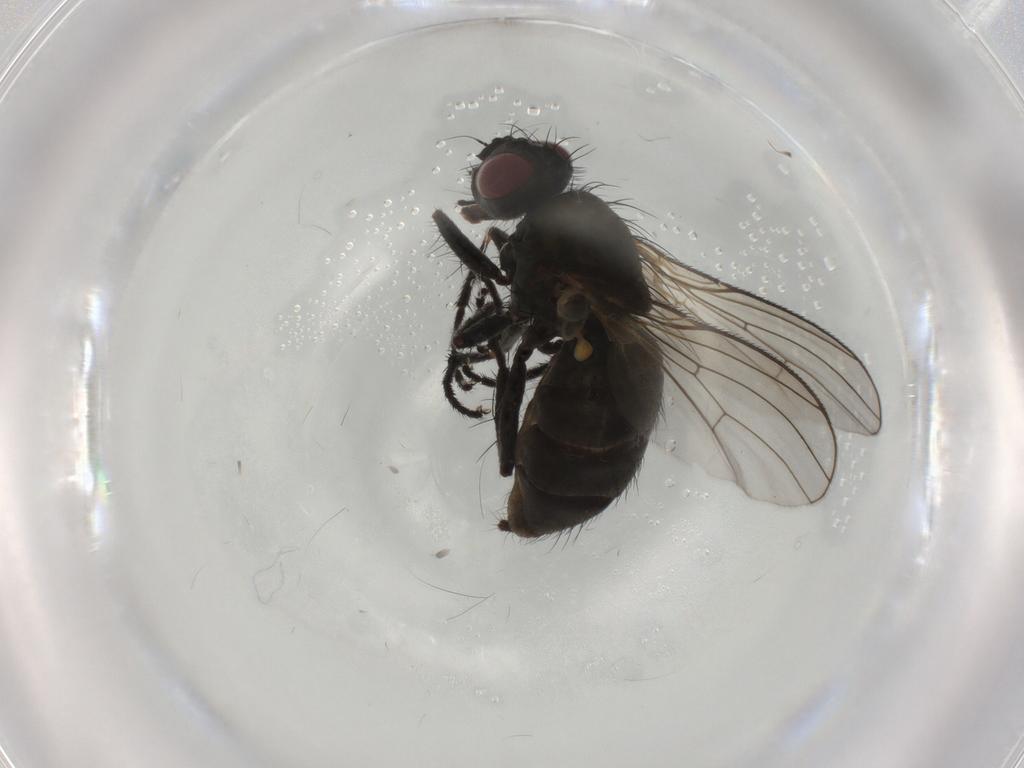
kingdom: Animalia
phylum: Arthropoda
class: Insecta
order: Diptera
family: Muscidae
